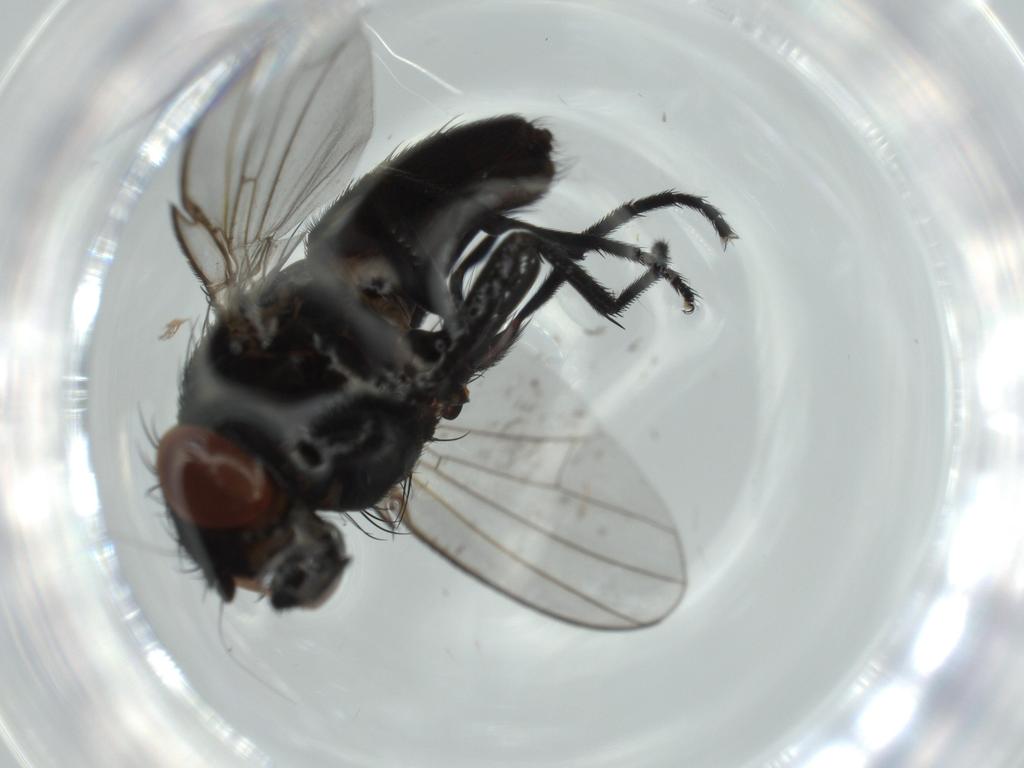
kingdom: Animalia
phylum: Arthropoda
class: Insecta
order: Diptera
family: Milichiidae
